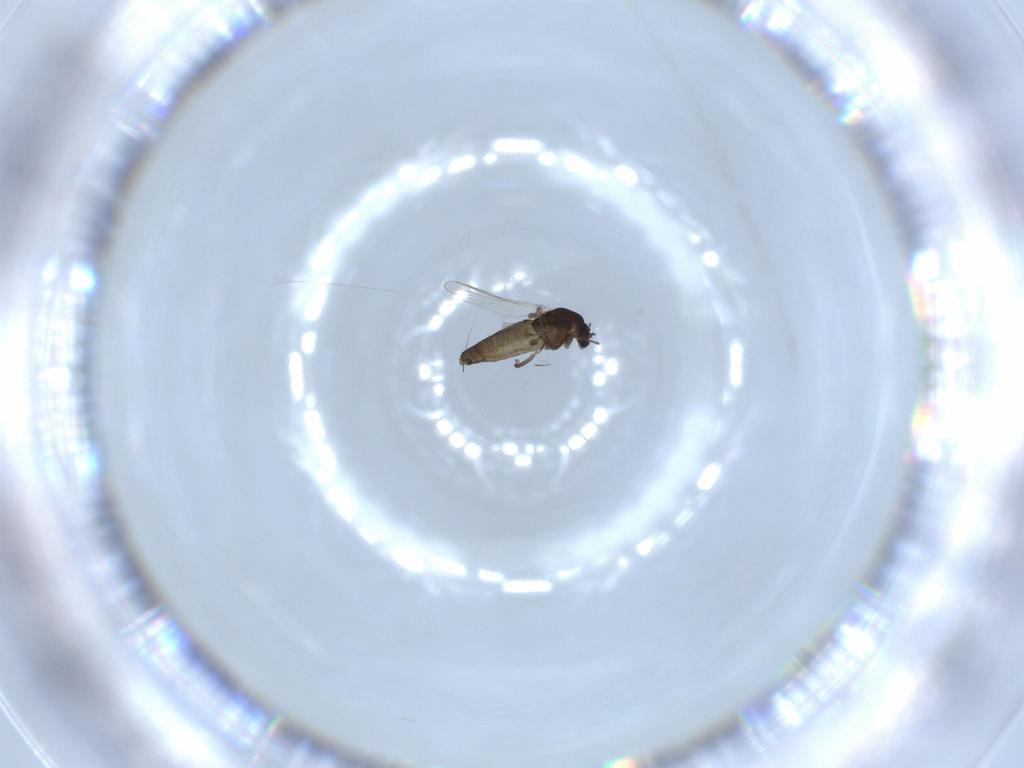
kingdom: Animalia
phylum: Arthropoda
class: Insecta
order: Diptera
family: Chironomidae
